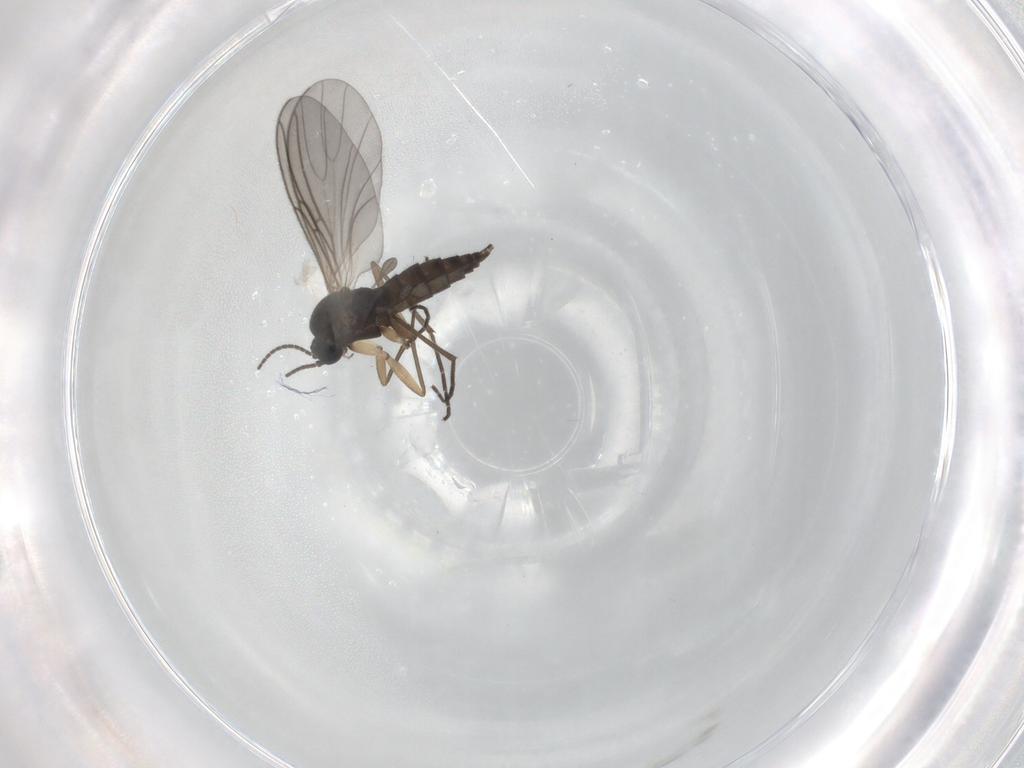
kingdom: Animalia
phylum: Arthropoda
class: Insecta
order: Diptera
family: Sciaridae
